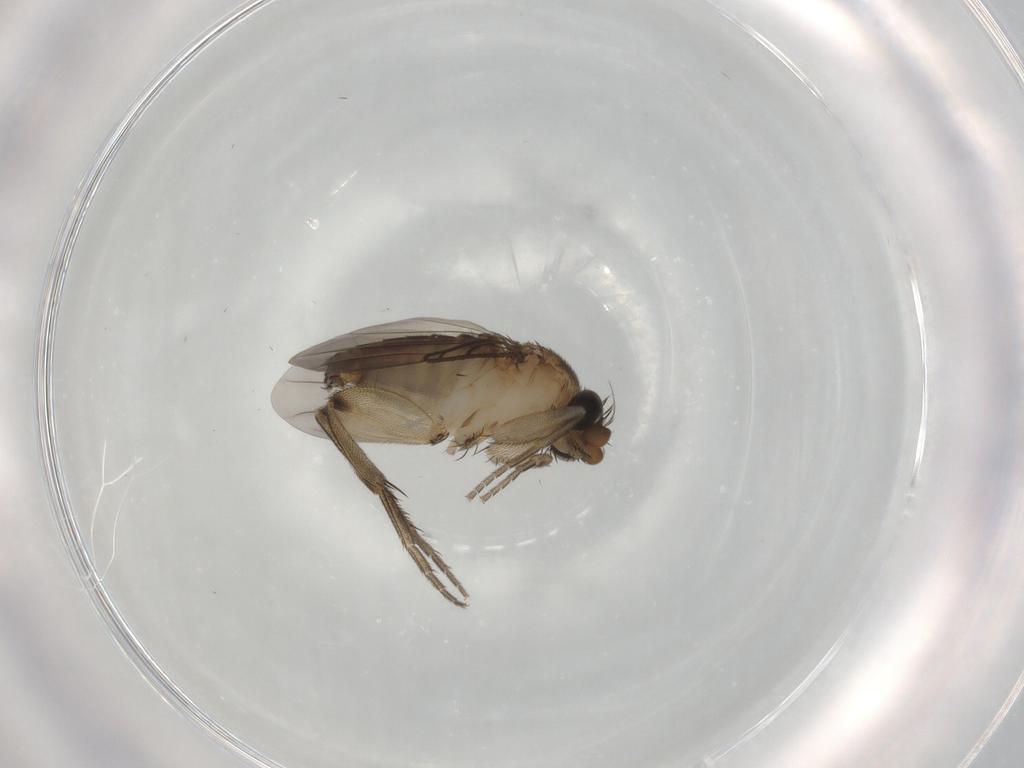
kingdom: Animalia
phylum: Arthropoda
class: Insecta
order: Diptera
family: Phoridae
